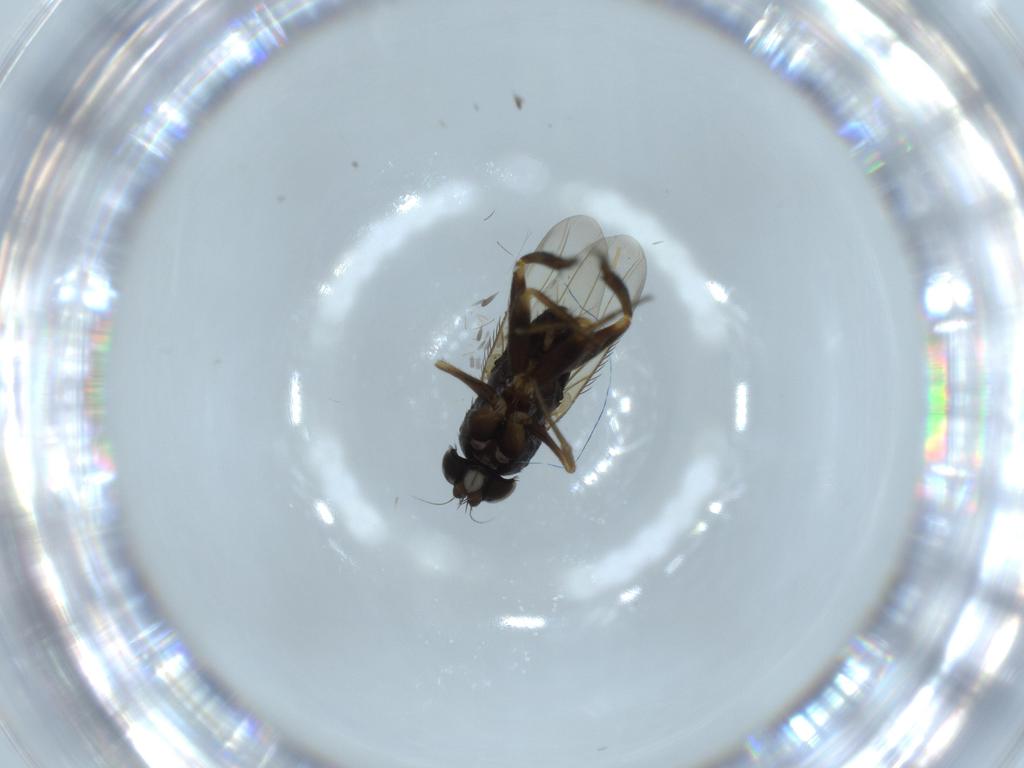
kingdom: Animalia
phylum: Arthropoda
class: Insecta
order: Diptera
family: Phoridae
